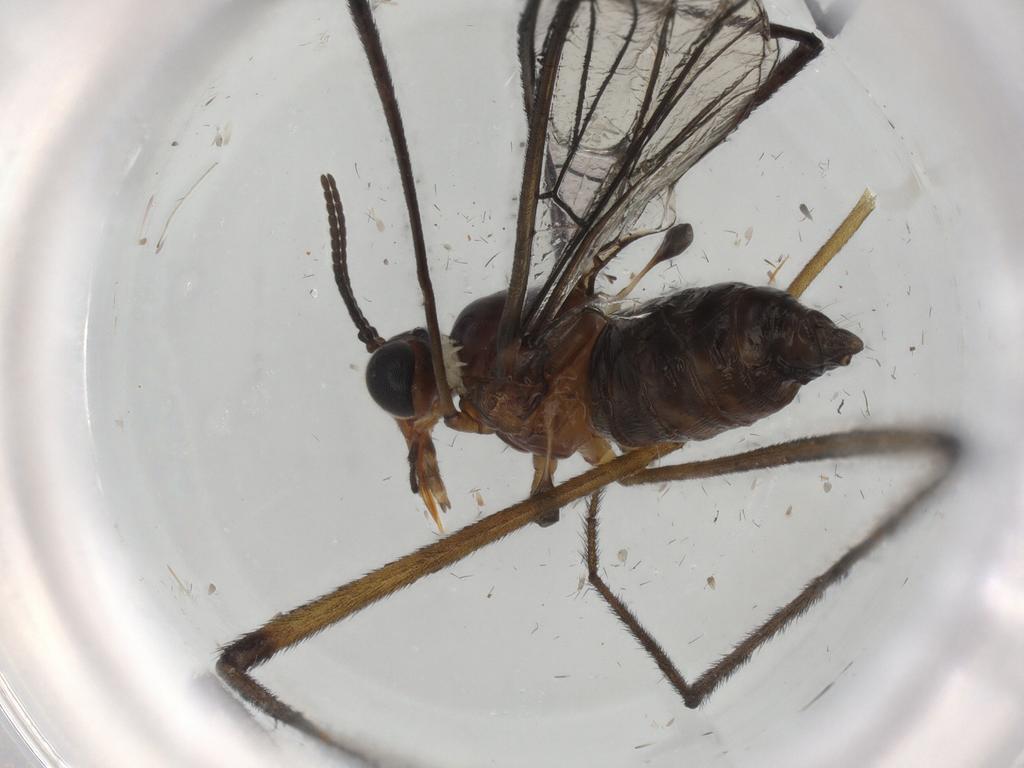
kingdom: Animalia
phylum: Arthropoda
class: Insecta
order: Diptera
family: Cecidomyiidae
